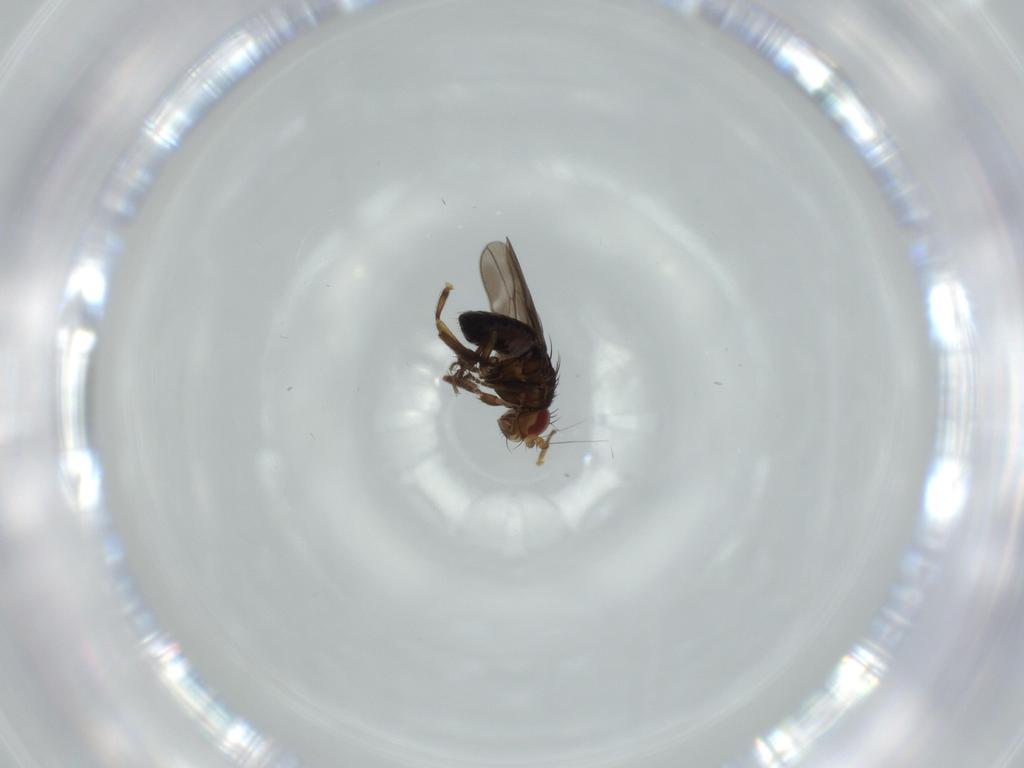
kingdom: Animalia
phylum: Arthropoda
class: Insecta
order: Diptera
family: Sphaeroceridae
